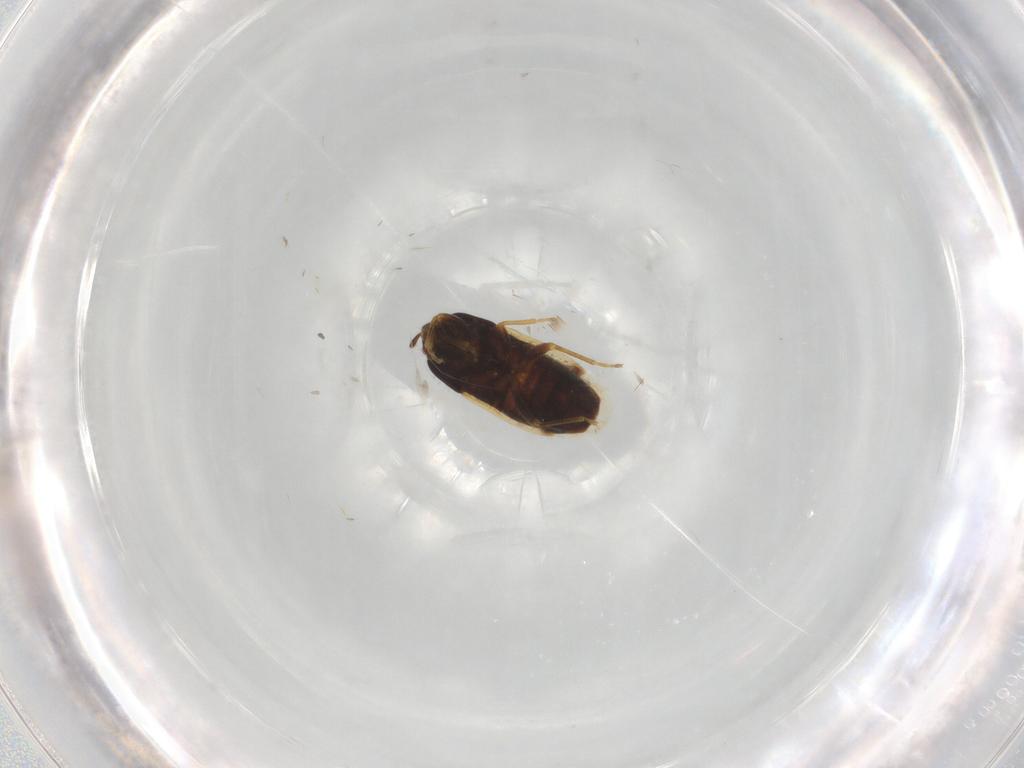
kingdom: Animalia
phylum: Arthropoda
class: Insecta
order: Hemiptera
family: Rhyparochromidae
